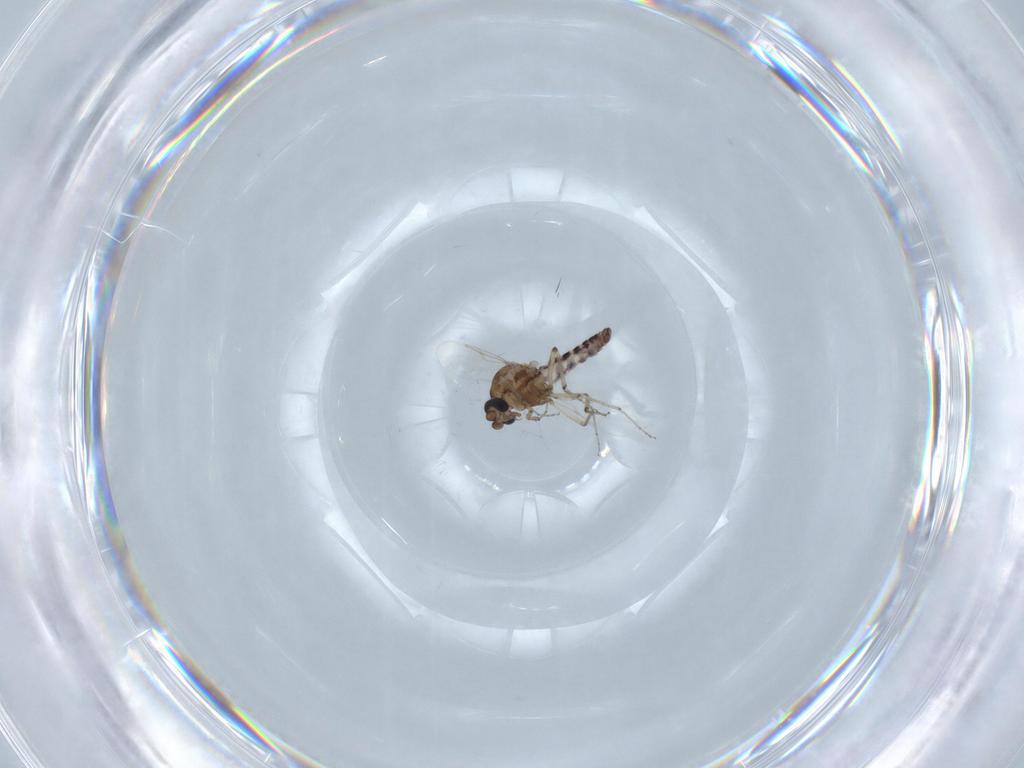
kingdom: Animalia
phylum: Arthropoda
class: Insecta
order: Diptera
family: Ceratopogonidae
